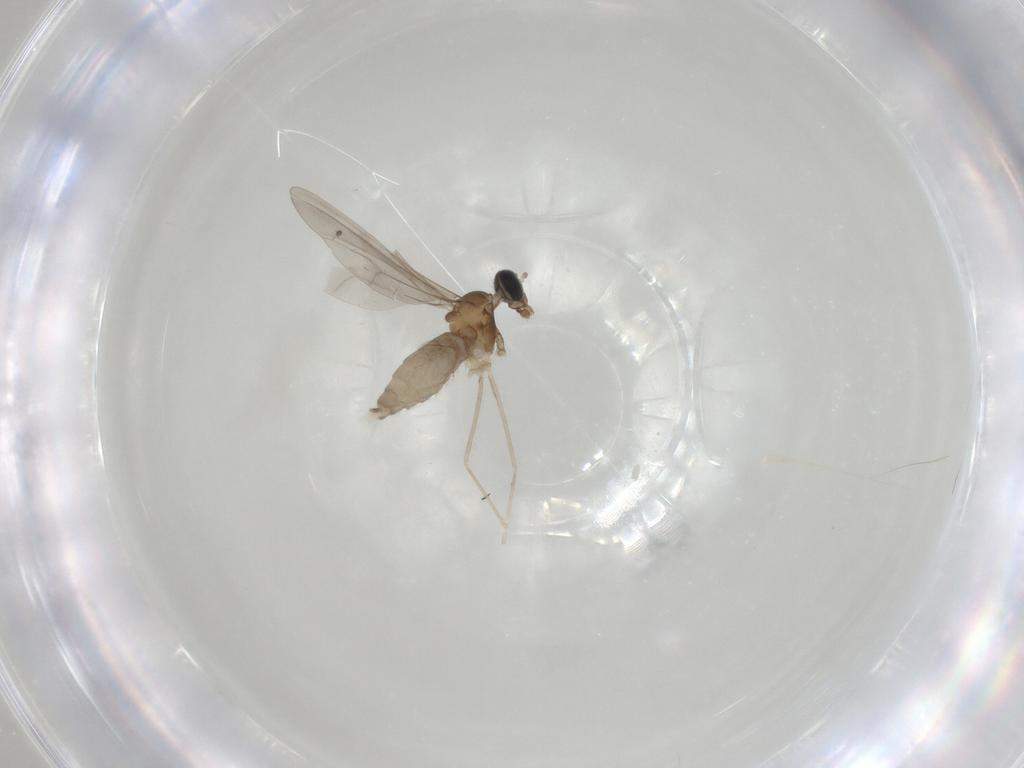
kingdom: Animalia
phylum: Arthropoda
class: Insecta
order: Diptera
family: Cecidomyiidae
